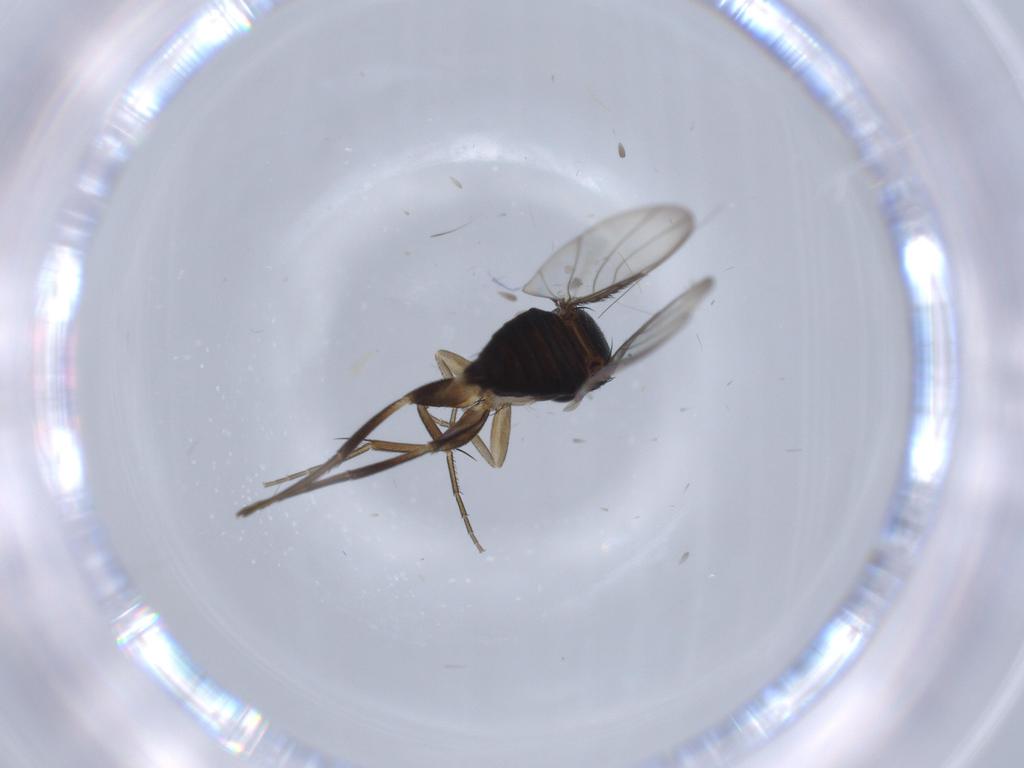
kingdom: Animalia
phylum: Arthropoda
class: Insecta
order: Diptera
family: Phoridae
